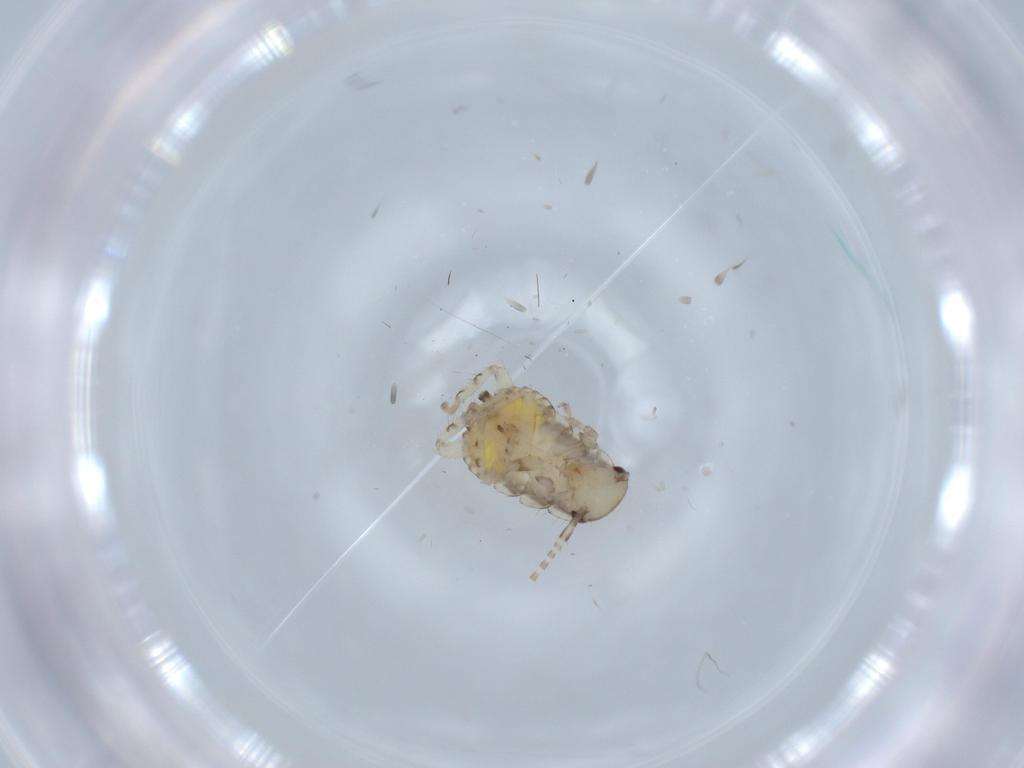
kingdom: Animalia
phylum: Arthropoda
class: Insecta
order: Blattodea
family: Ectobiidae
